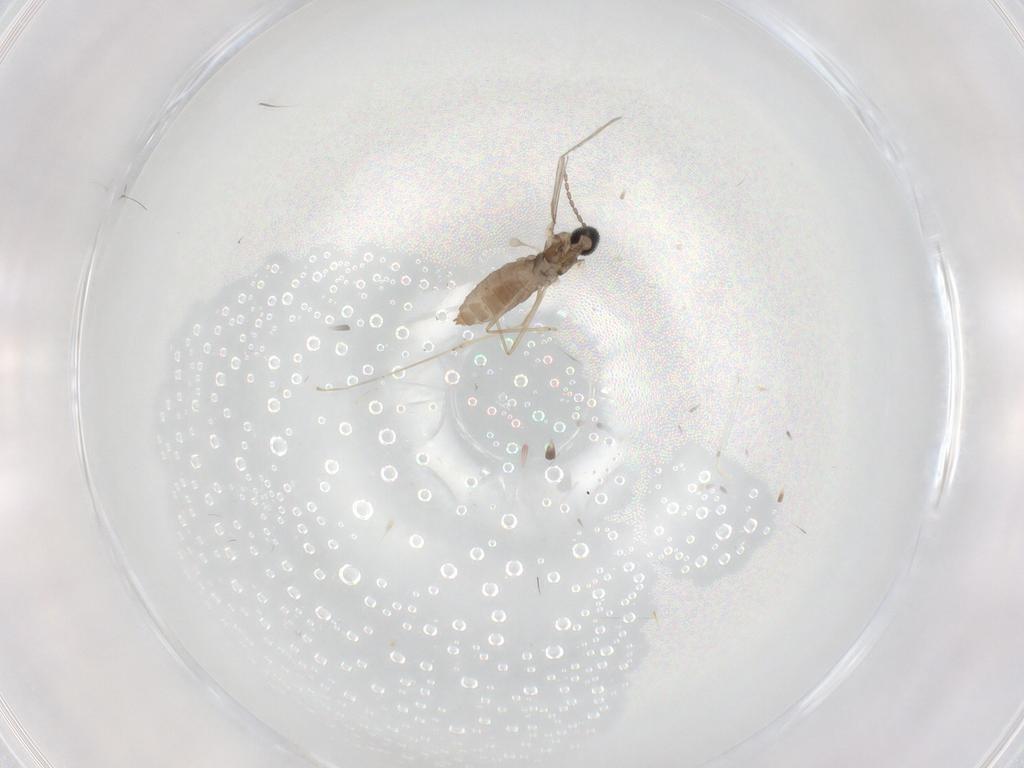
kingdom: Animalia
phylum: Arthropoda
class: Insecta
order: Diptera
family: Cecidomyiidae
